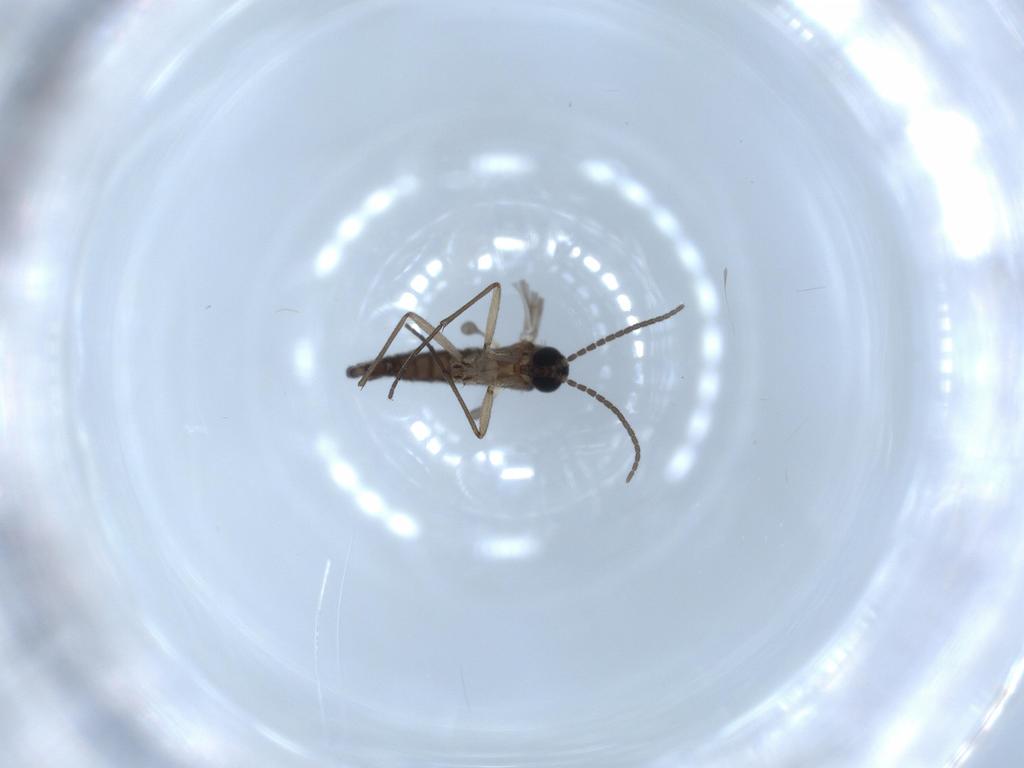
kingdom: Animalia
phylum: Arthropoda
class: Insecta
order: Diptera
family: Sciaridae
